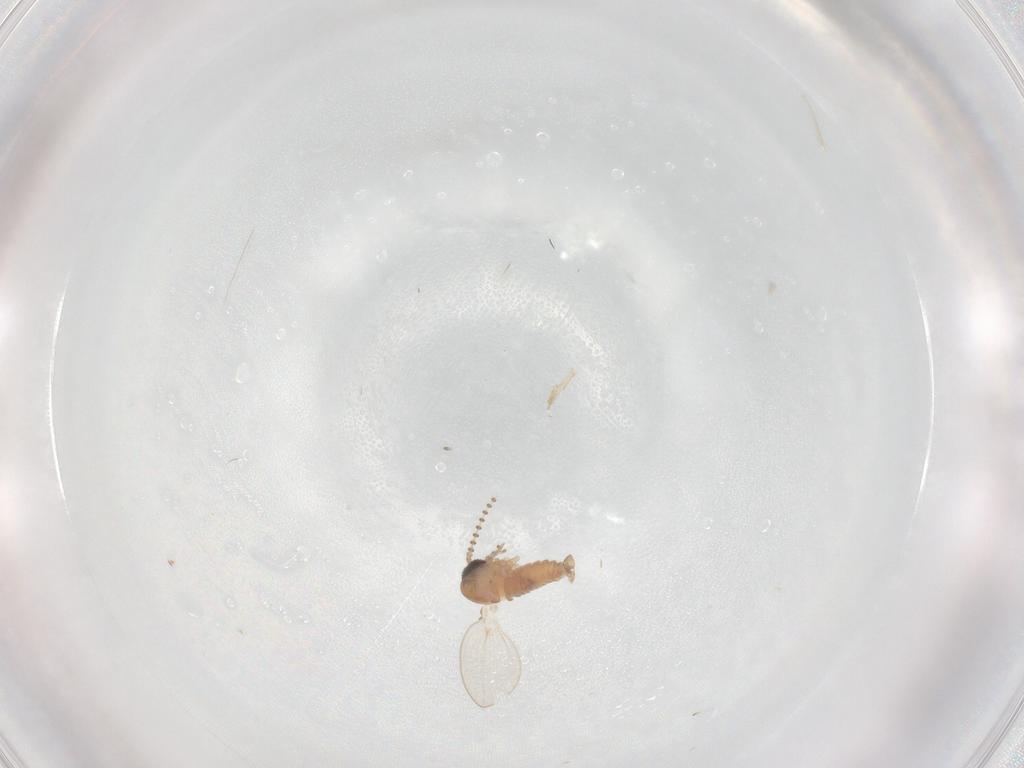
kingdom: Animalia
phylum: Arthropoda
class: Insecta
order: Diptera
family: Psychodidae
